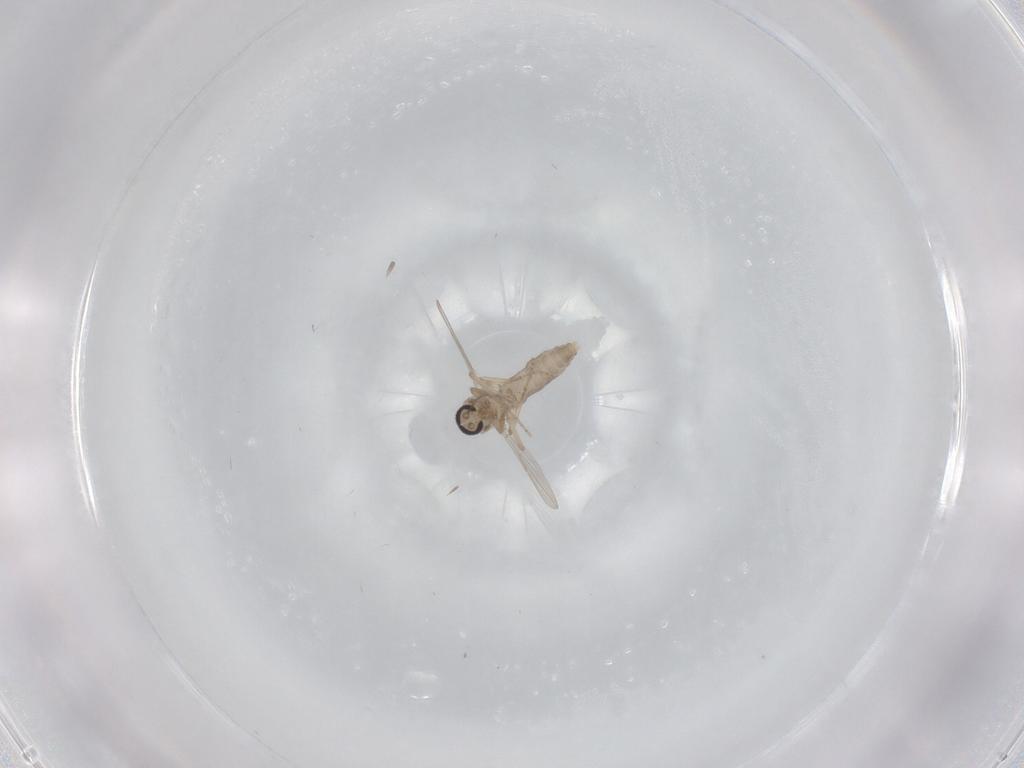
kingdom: Animalia
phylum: Arthropoda
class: Insecta
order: Diptera
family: Ceratopogonidae
